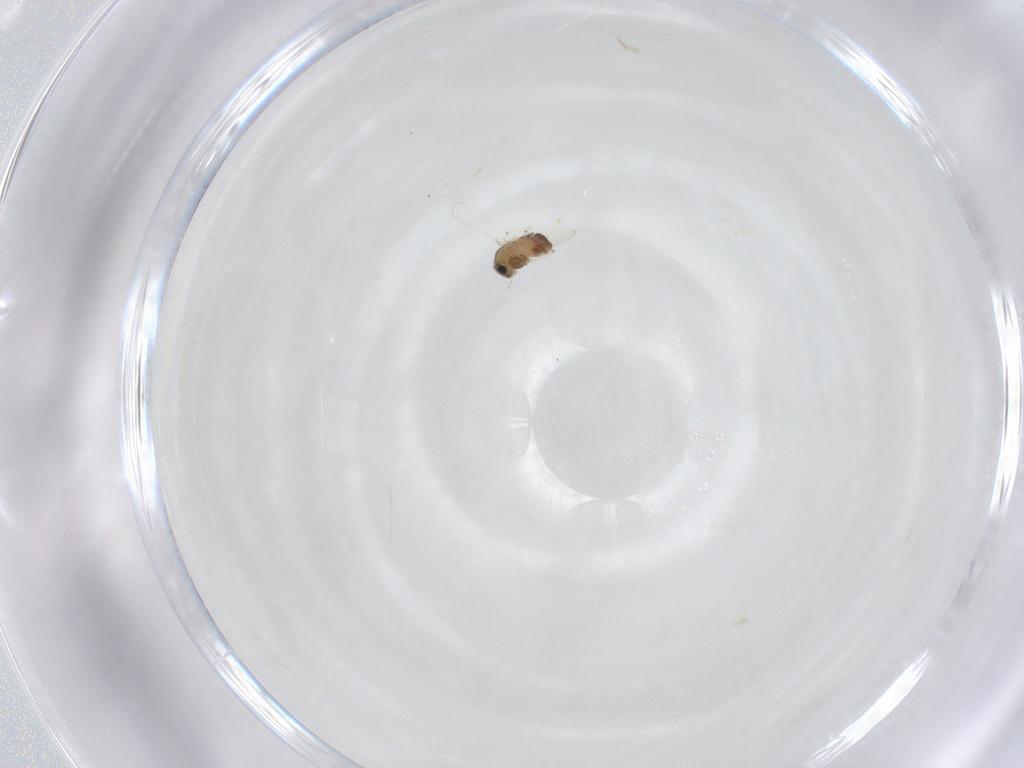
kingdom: Animalia
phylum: Arthropoda
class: Insecta
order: Diptera
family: Chironomidae
